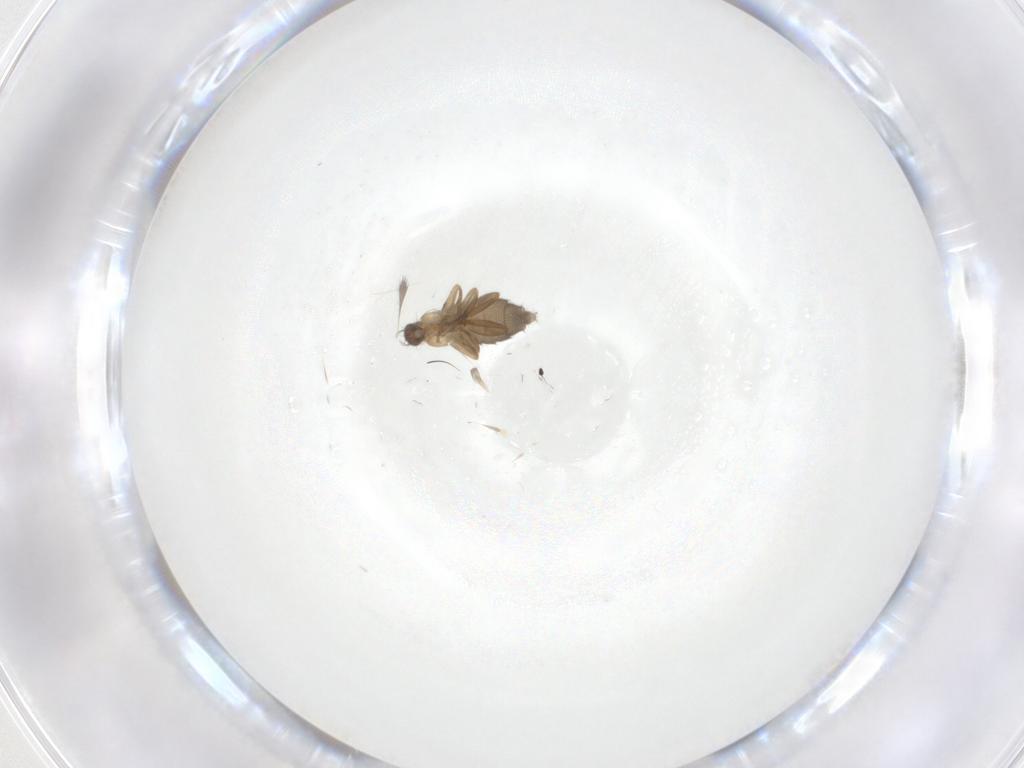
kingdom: Animalia
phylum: Arthropoda
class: Insecta
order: Diptera
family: Phoridae
